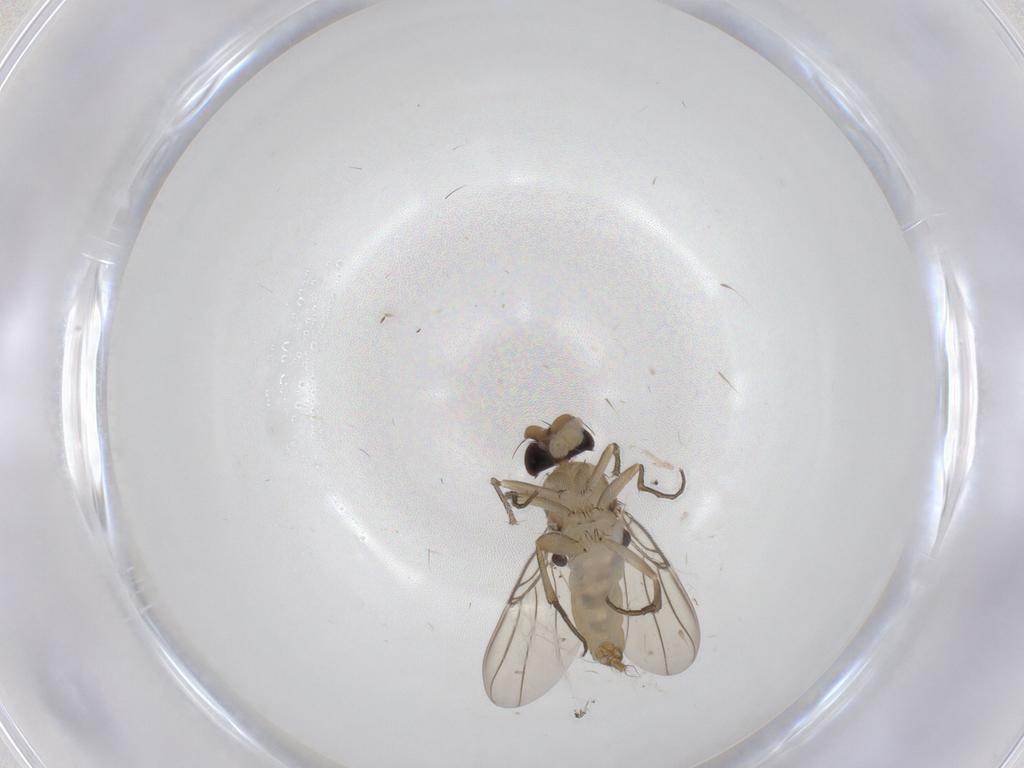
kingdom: Animalia
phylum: Arthropoda
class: Insecta
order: Diptera
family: Phoridae
